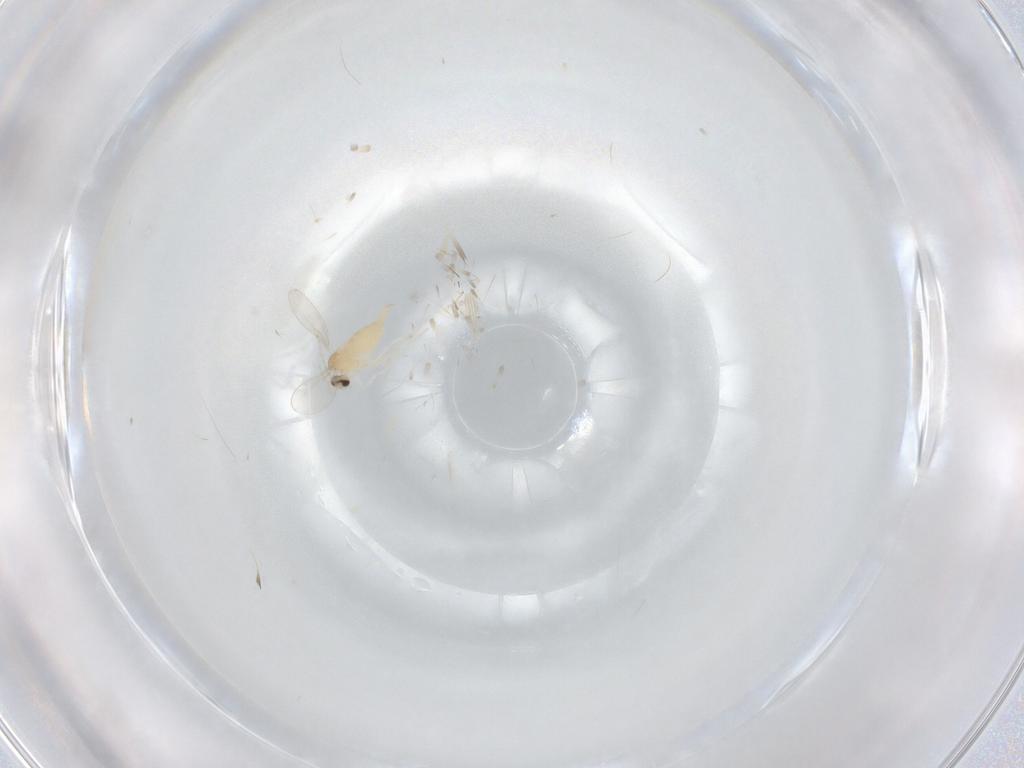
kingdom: Animalia
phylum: Arthropoda
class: Insecta
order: Diptera
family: Cecidomyiidae
